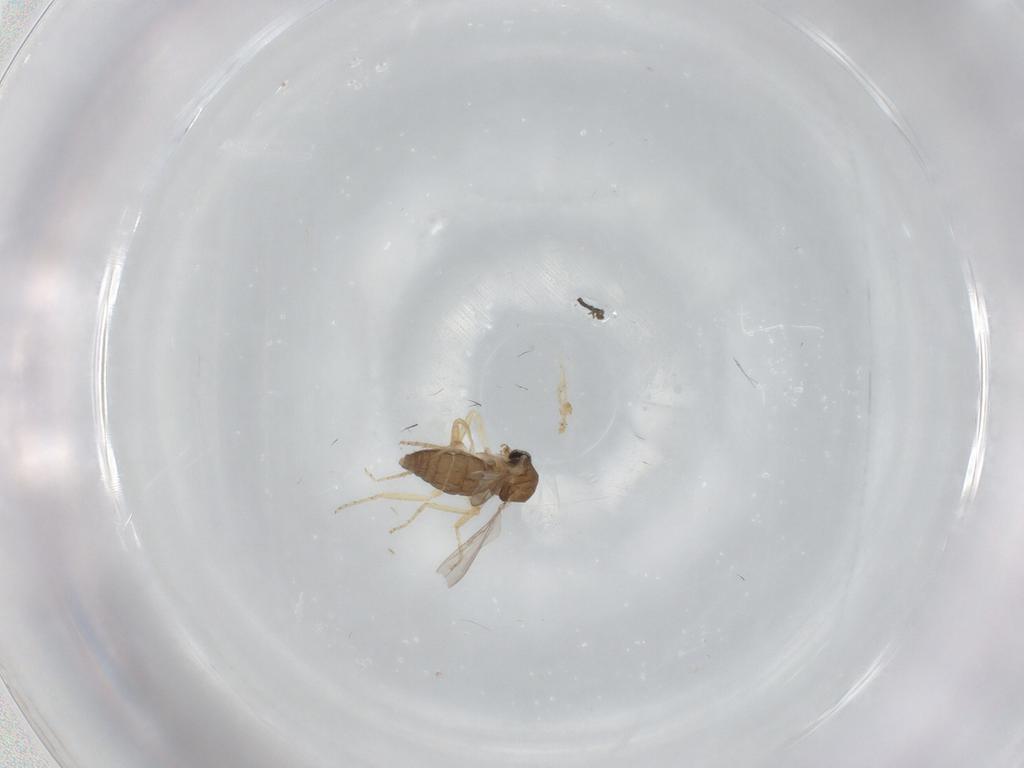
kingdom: Animalia
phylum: Arthropoda
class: Insecta
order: Diptera
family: Ceratopogonidae
